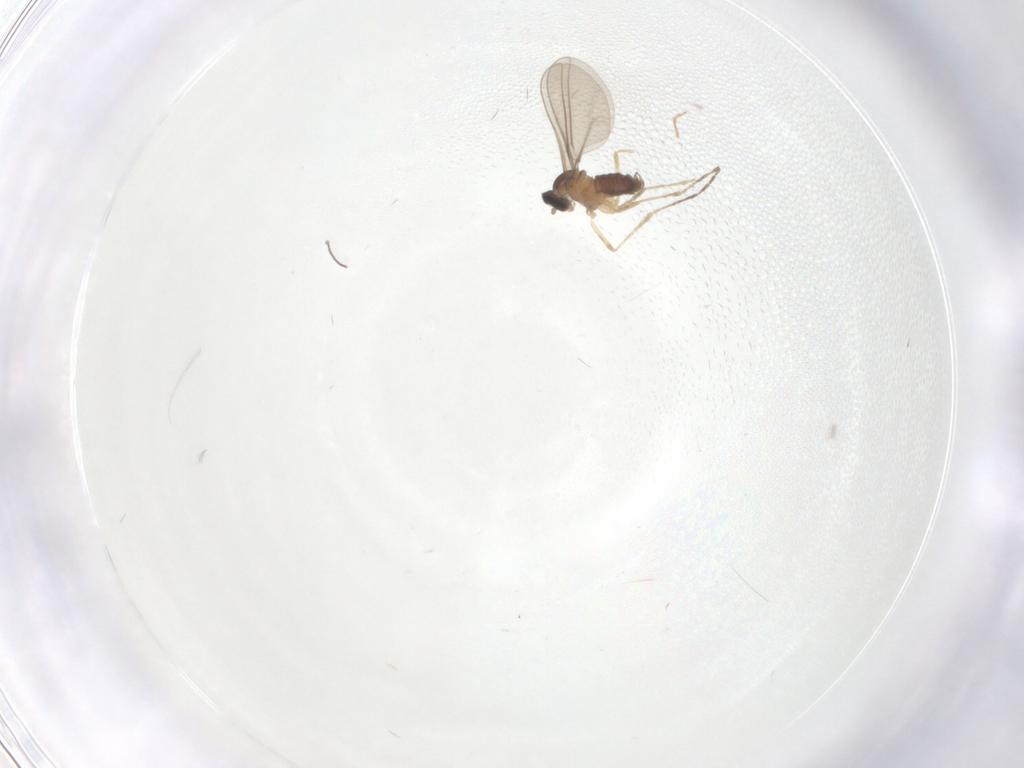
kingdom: Animalia
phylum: Arthropoda
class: Insecta
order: Diptera
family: Cecidomyiidae
